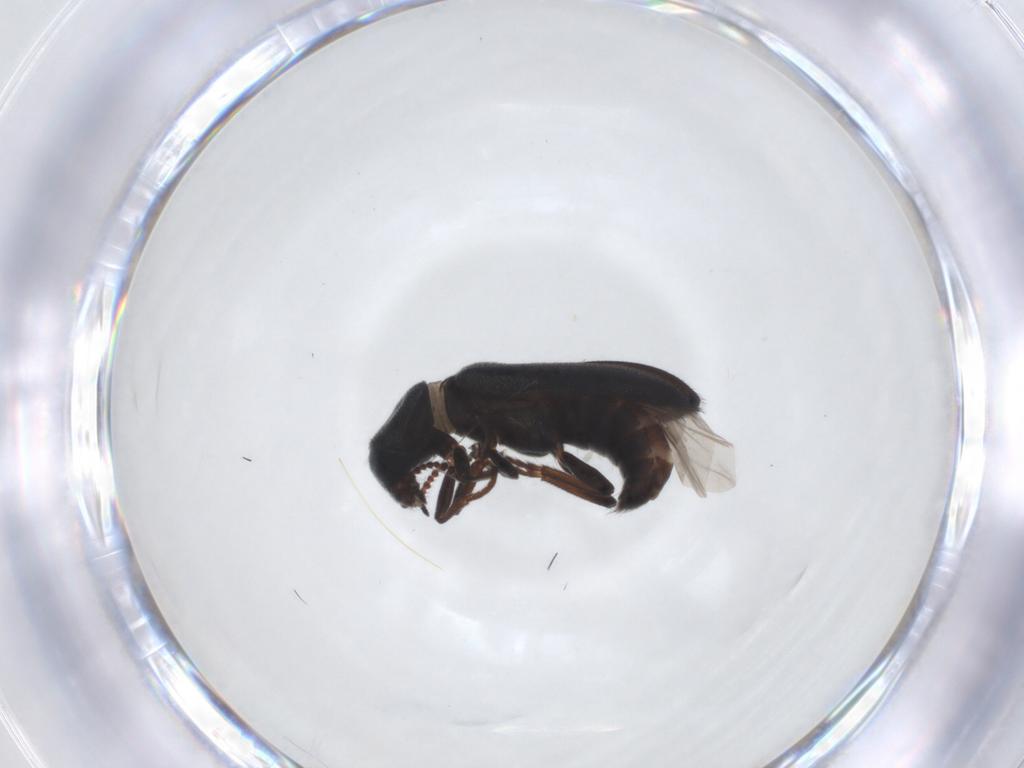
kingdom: Animalia
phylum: Arthropoda
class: Insecta
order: Coleoptera
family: Melyridae
